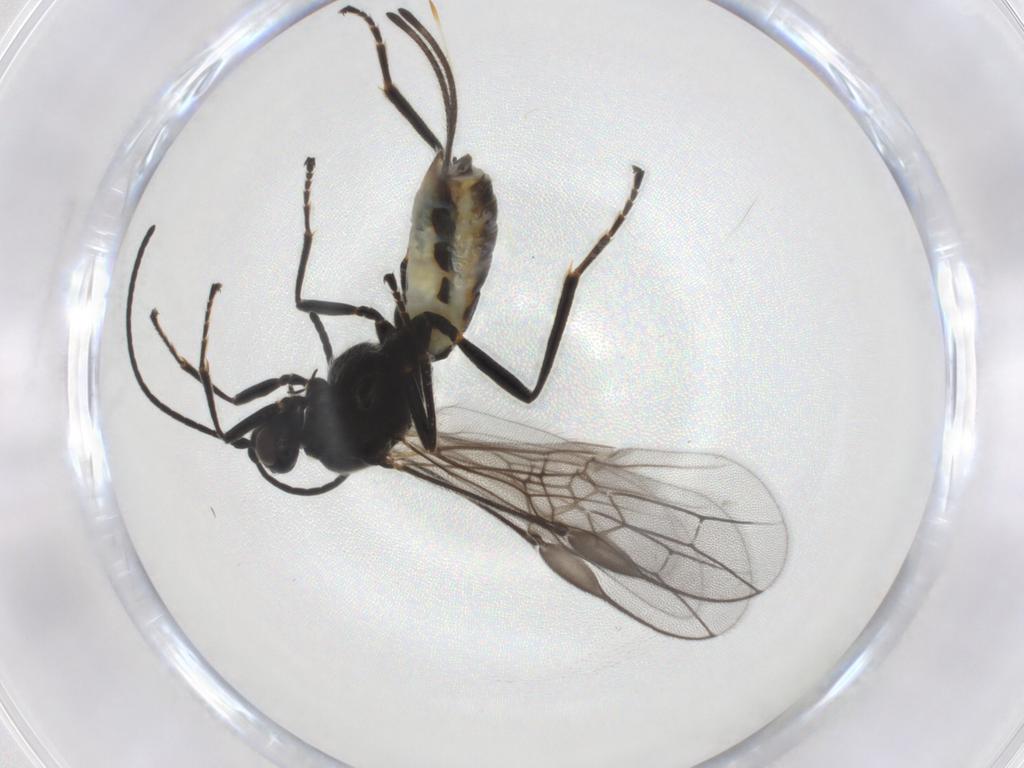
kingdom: Animalia
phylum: Arthropoda
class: Insecta
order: Hymenoptera
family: Braconidae
